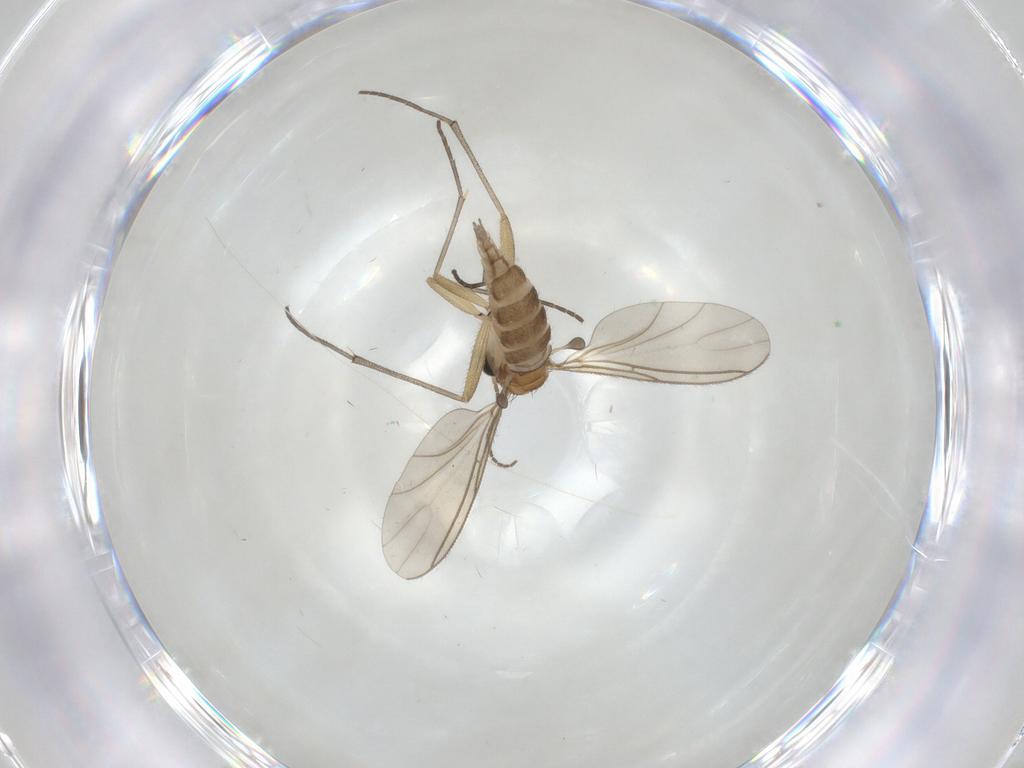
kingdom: Animalia
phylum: Arthropoda
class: Insecta
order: Diptera
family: Sciaridae
